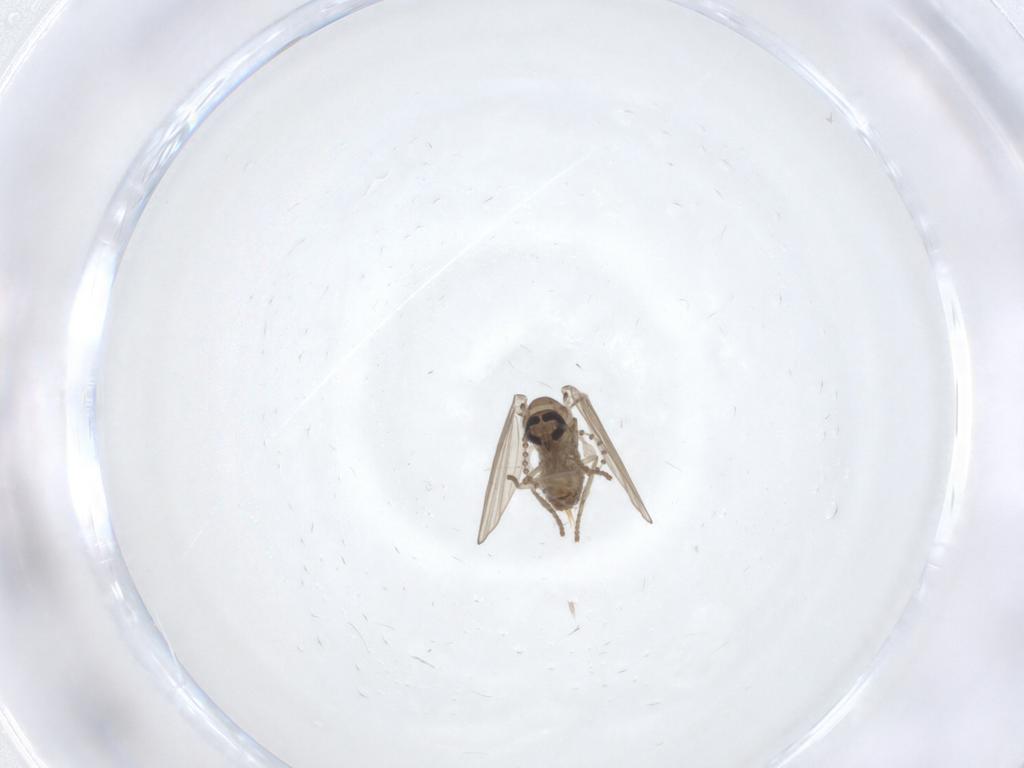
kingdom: Animalia
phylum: Arthropoda
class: Insecta
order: Diptera
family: Psychodidae
